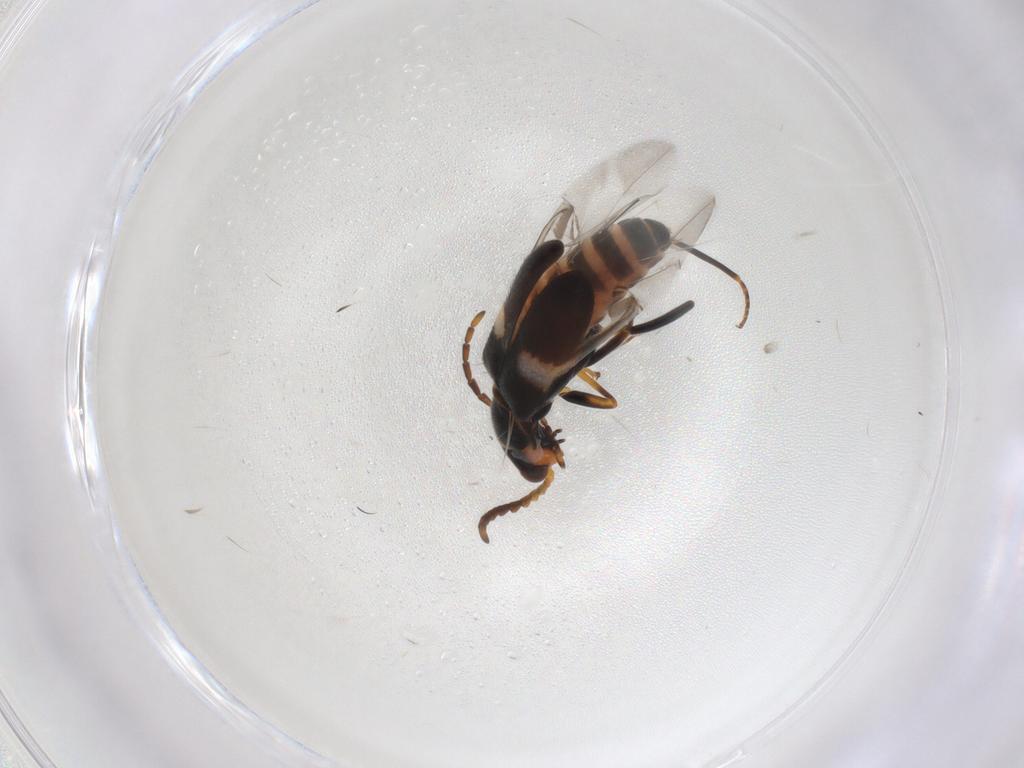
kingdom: Animalia
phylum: Arthropoda
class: Insecta
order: Coleoptera
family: Melyridae
